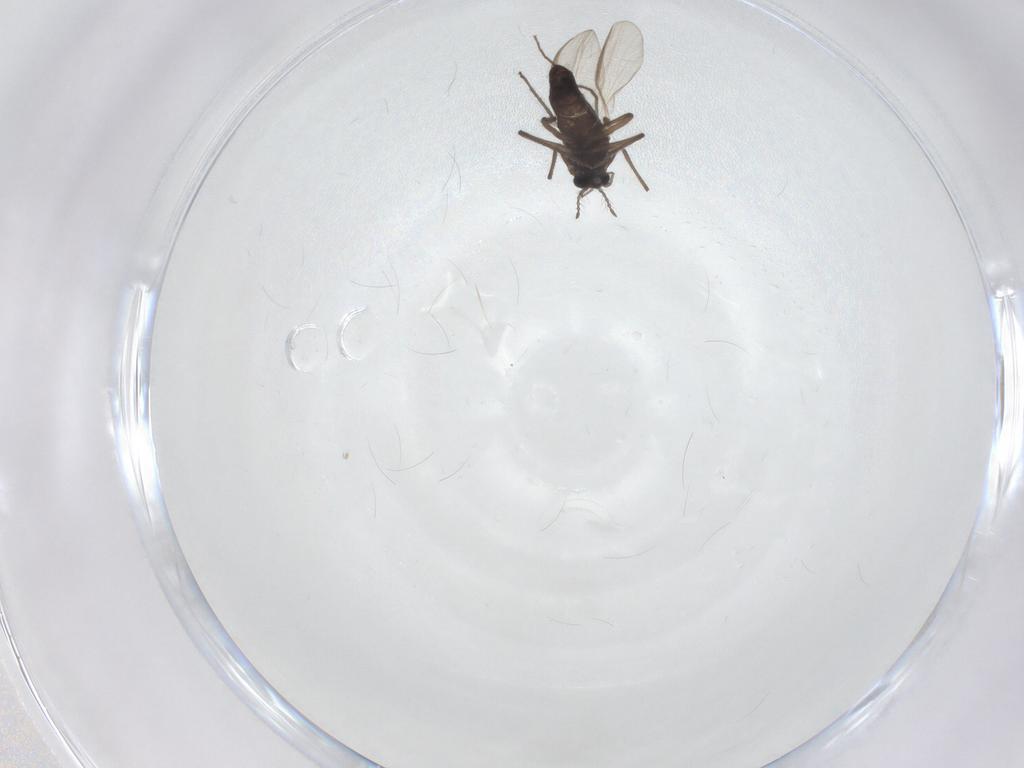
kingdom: Animalia
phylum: Arthropoda
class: Insecta
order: Diptera
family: Chironomidae
